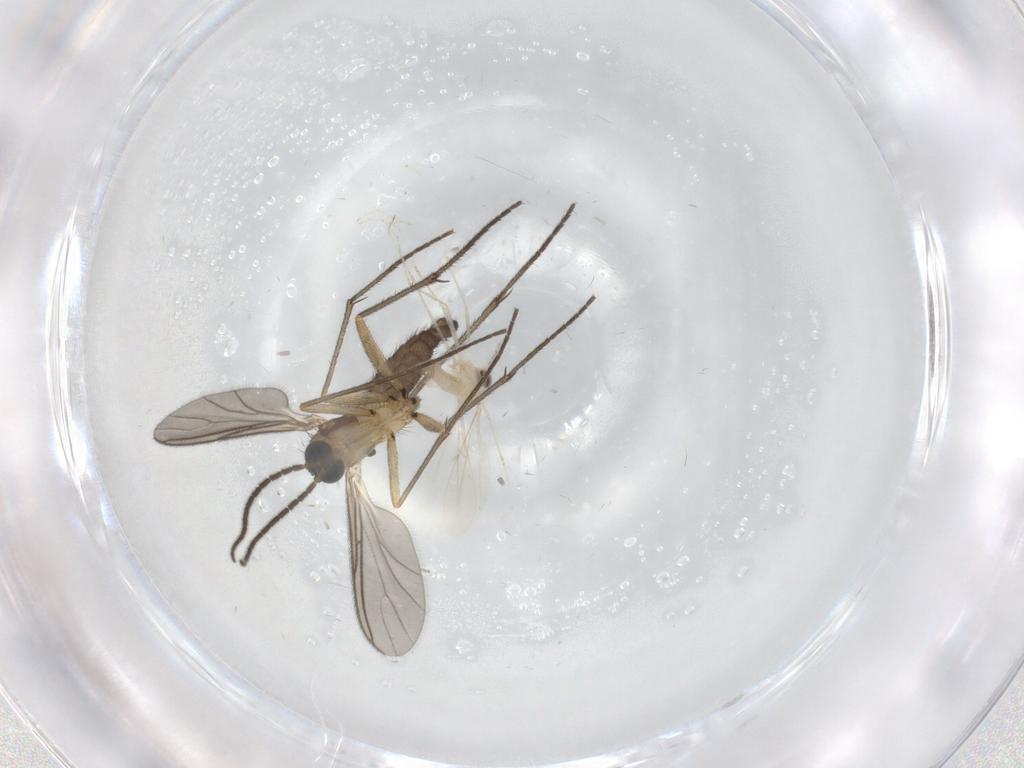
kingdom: Animalia
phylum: Arthropoda
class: Insecta
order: Diptera
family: Sciaridae
